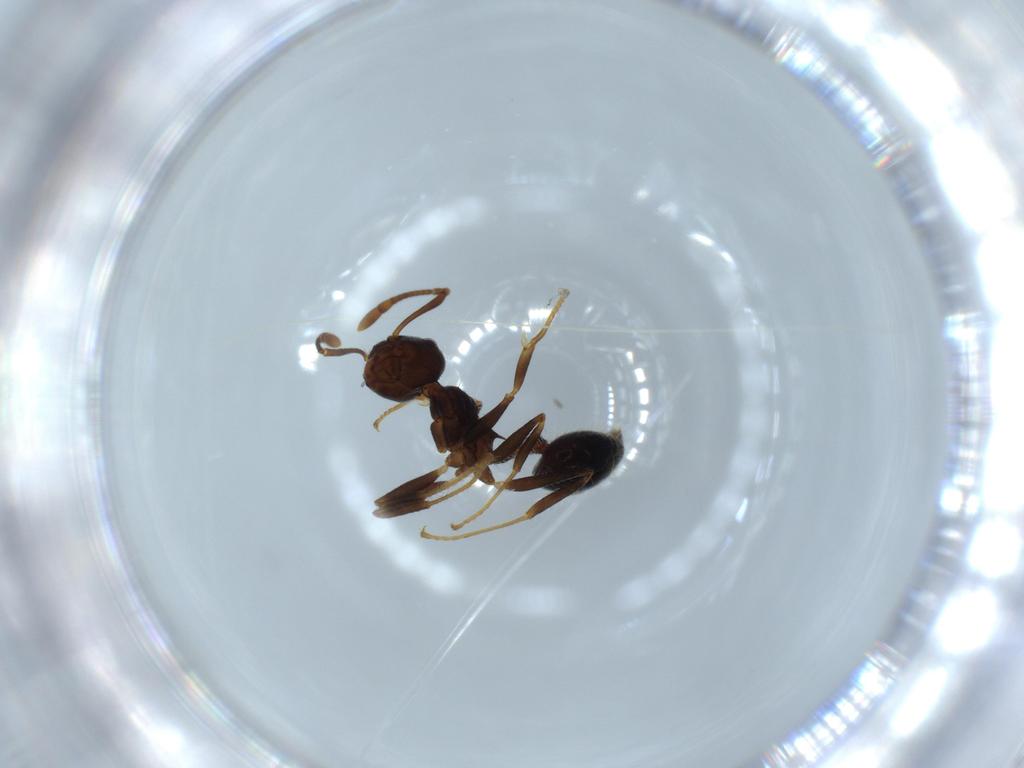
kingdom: Animalia
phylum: Arthropoda
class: Insecta
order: Hymenoptera
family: Formicidae
